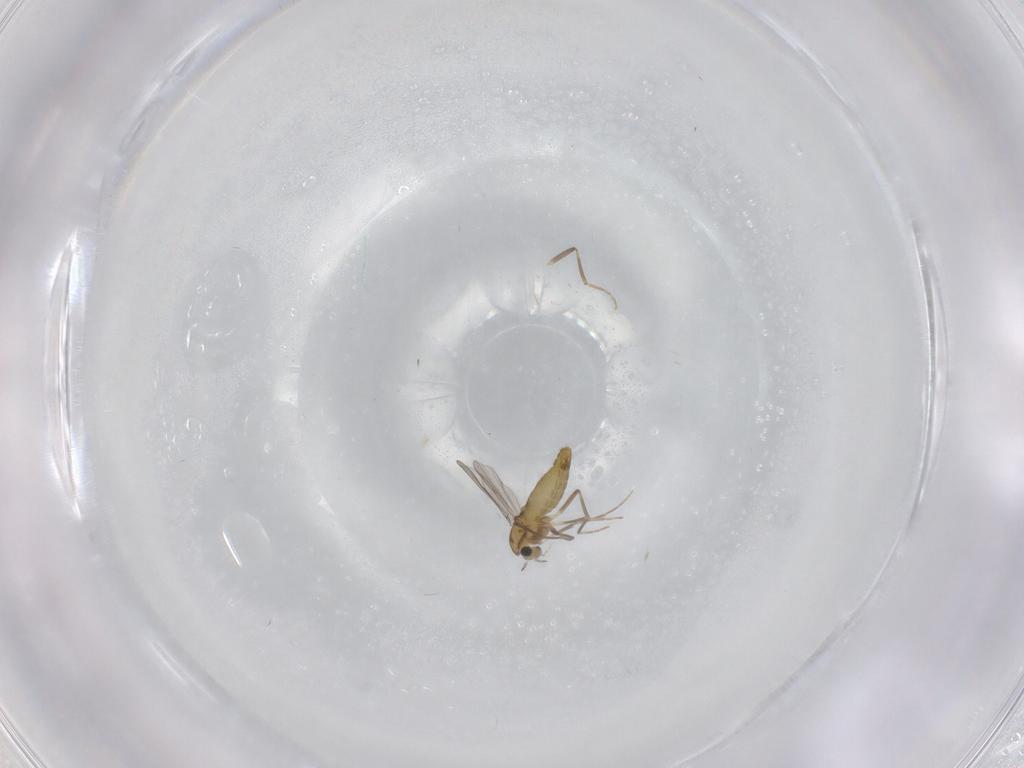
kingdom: Animalia
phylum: Arthropoda
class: Insecta
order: Diptera
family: Chironomidae
